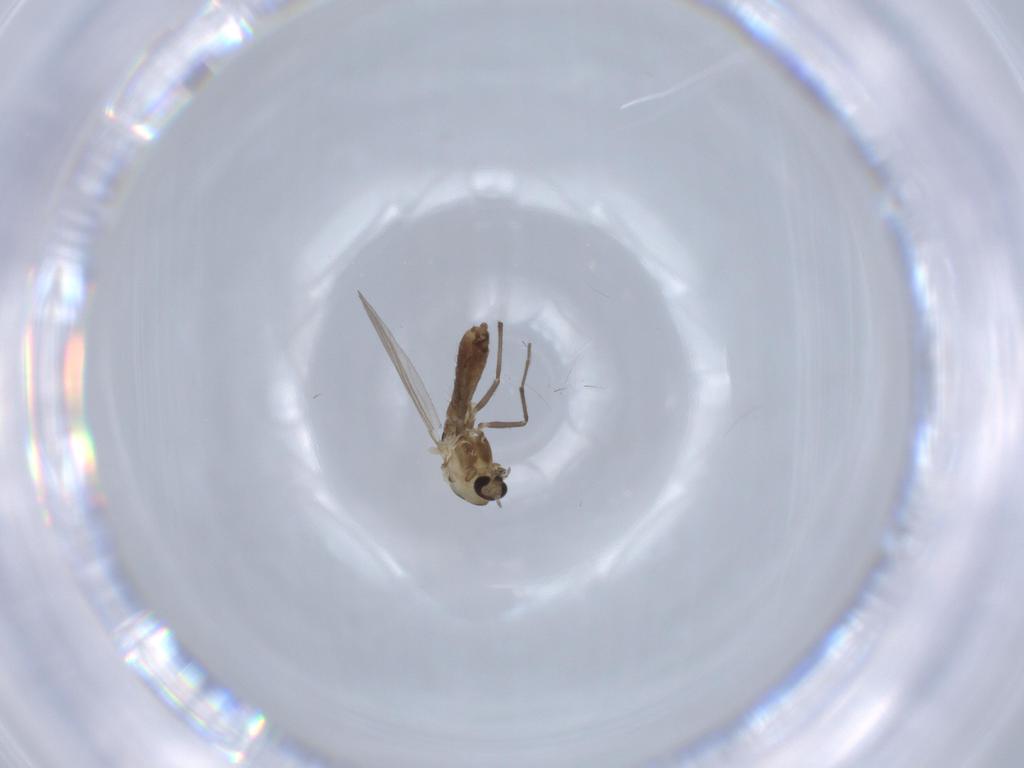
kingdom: Animalia
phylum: Arthropoda
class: Insecta
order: Diptera
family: Chironomidae
